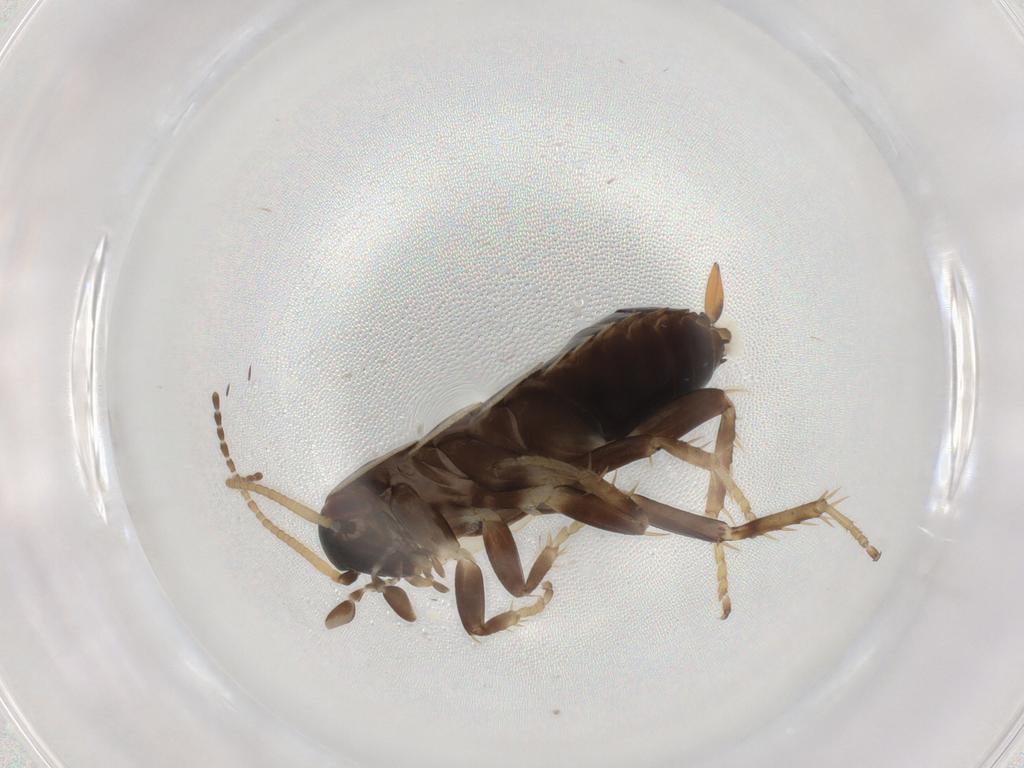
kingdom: Animalia
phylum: Arthropoda
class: Insecta
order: Blattodea
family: Ectobiidae
